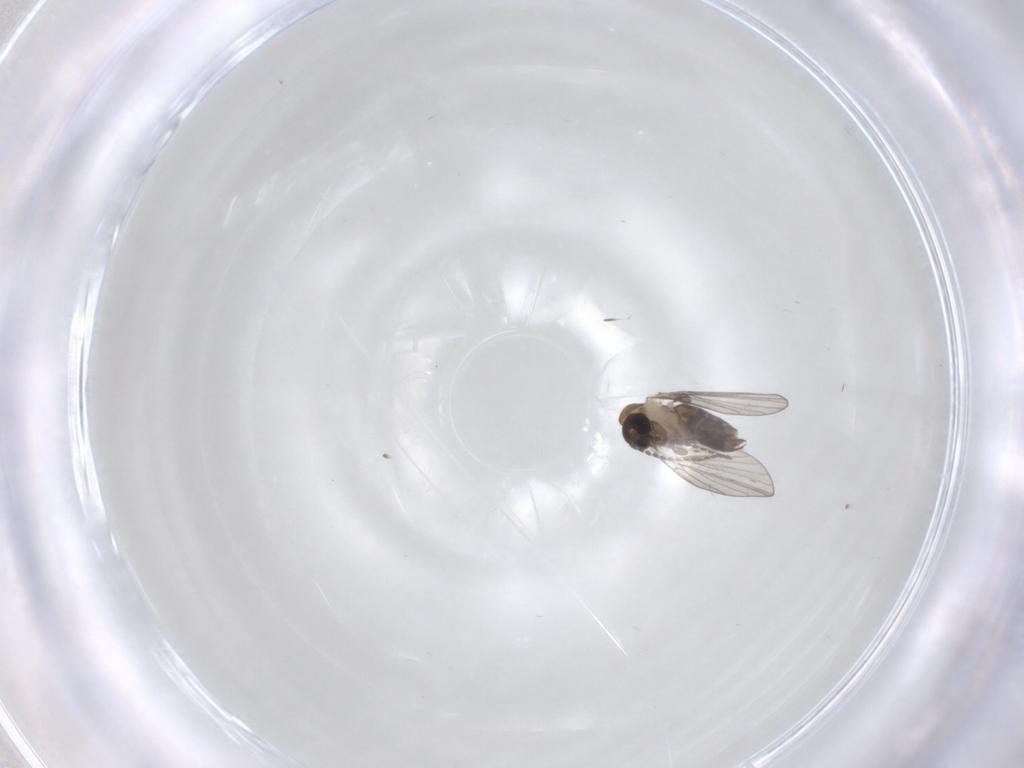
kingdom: Animalia
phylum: Arthropoda
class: Insecta
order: Diptera
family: Psychodidae
